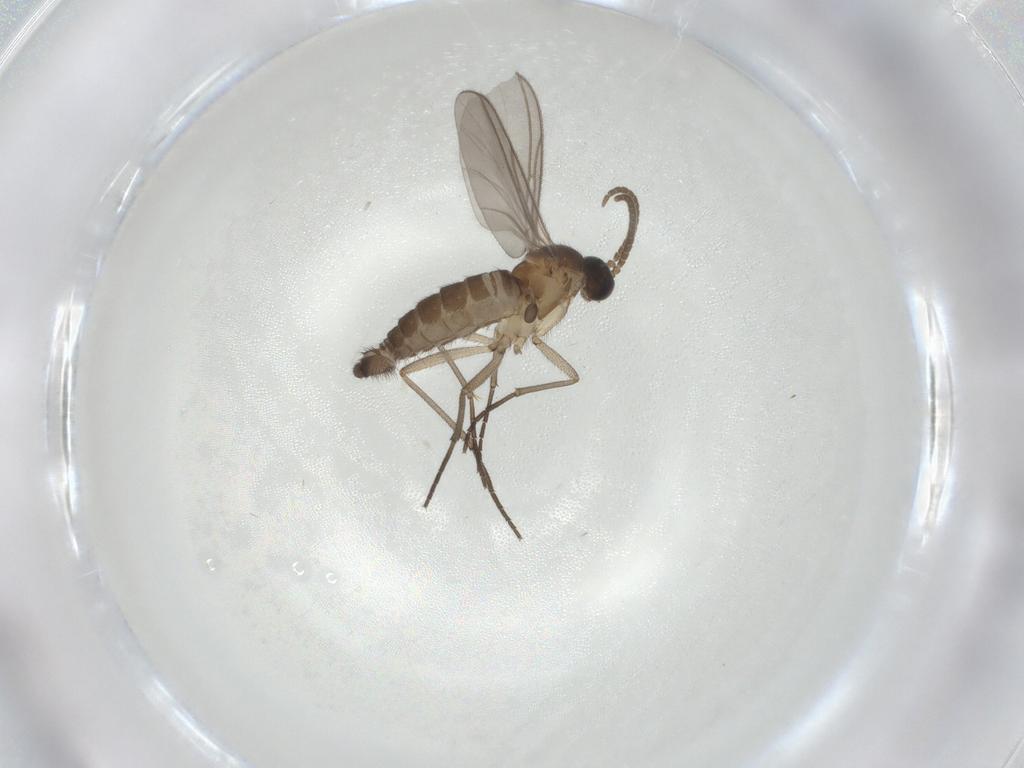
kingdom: Animalia
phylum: Arthropoda
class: Insecta
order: Diptera
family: Phoridae
